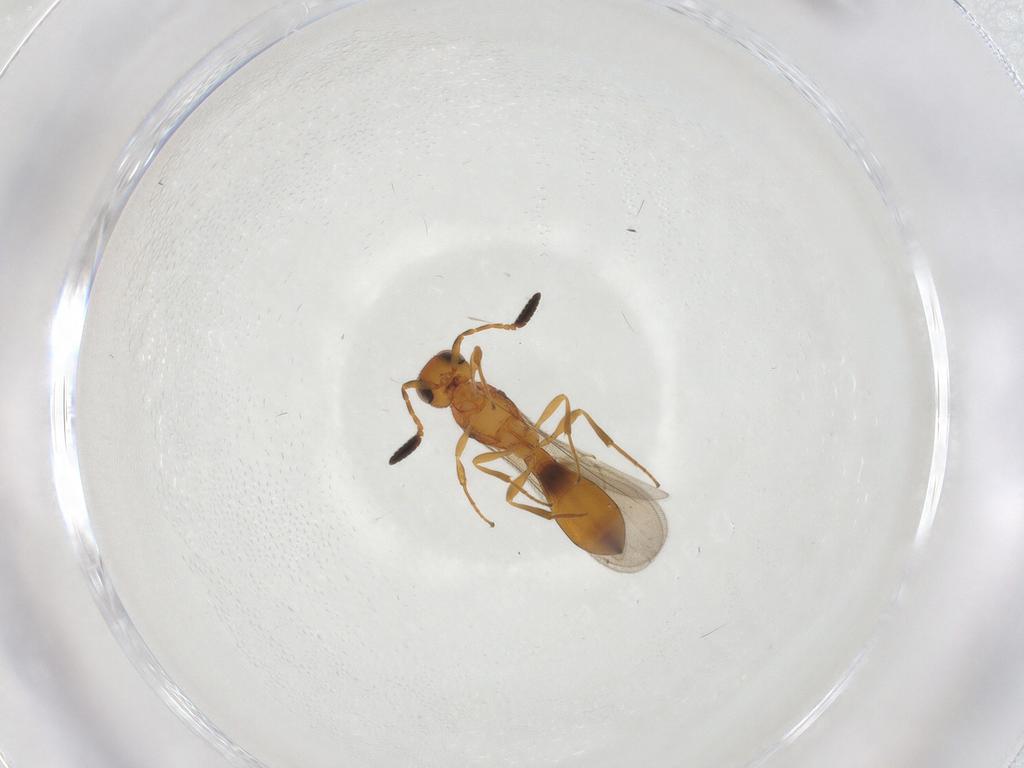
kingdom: Animalia
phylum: Arthropoda
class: Insecta
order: Hymenoptera
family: Scelionidae
